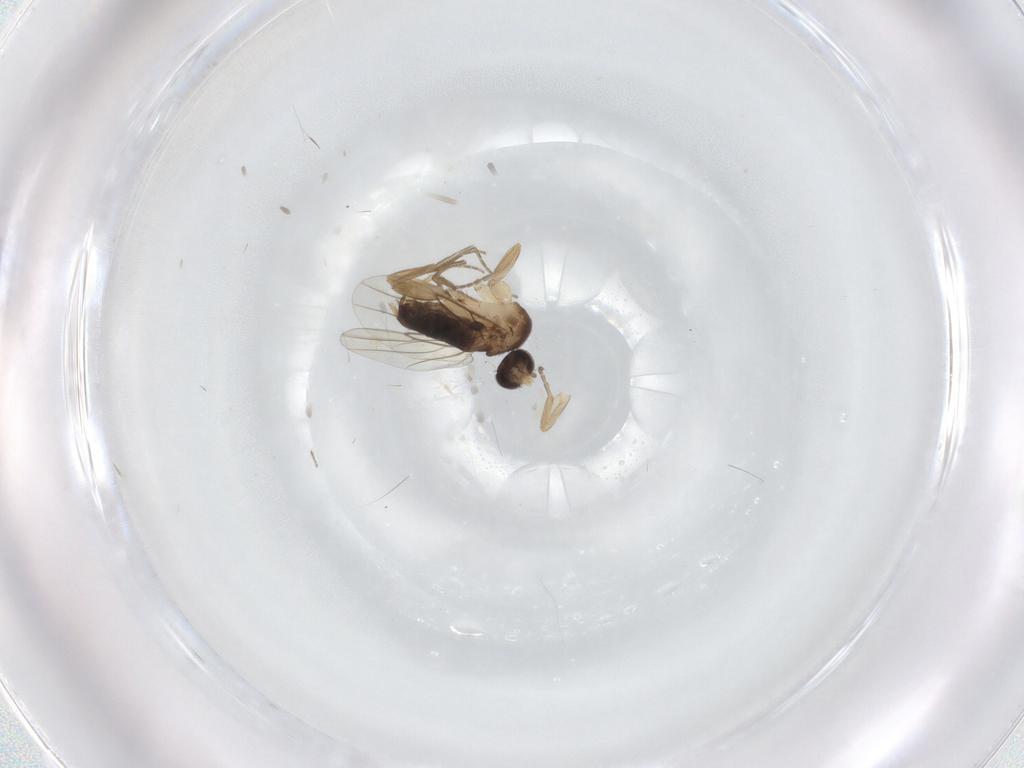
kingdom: Animalia
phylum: Arthropoda
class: Insecta
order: Diptera
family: Phoridae
